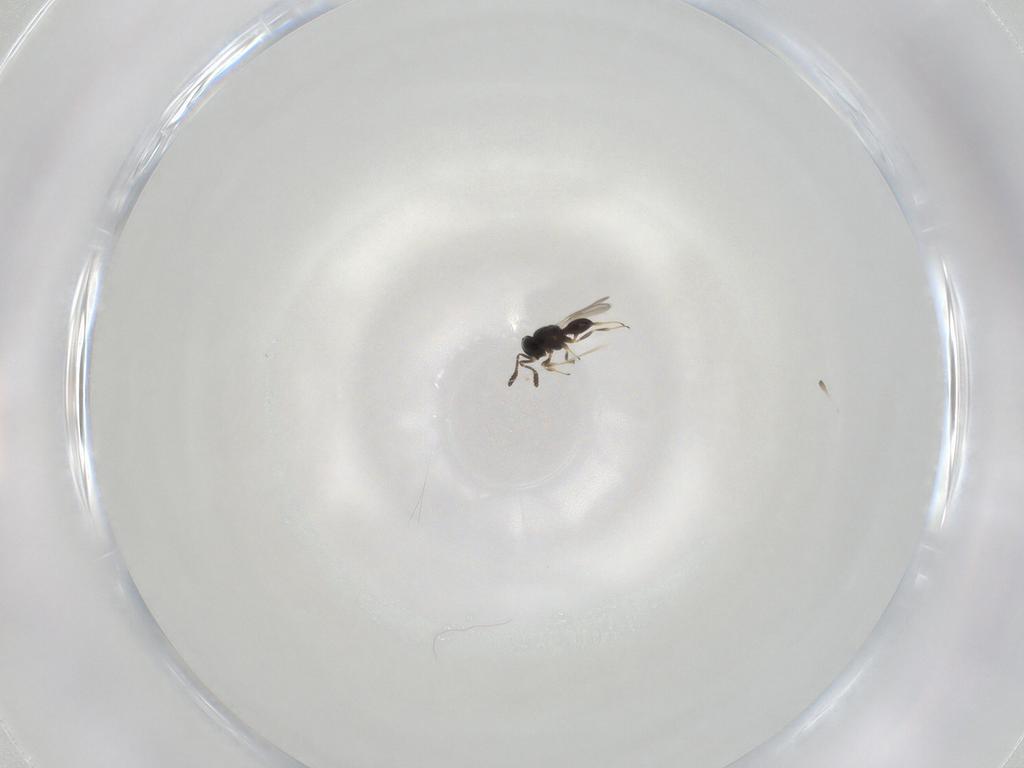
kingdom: Animalia
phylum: Arthropoda
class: Insecta
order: Hymenoptera
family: Scelionidae
